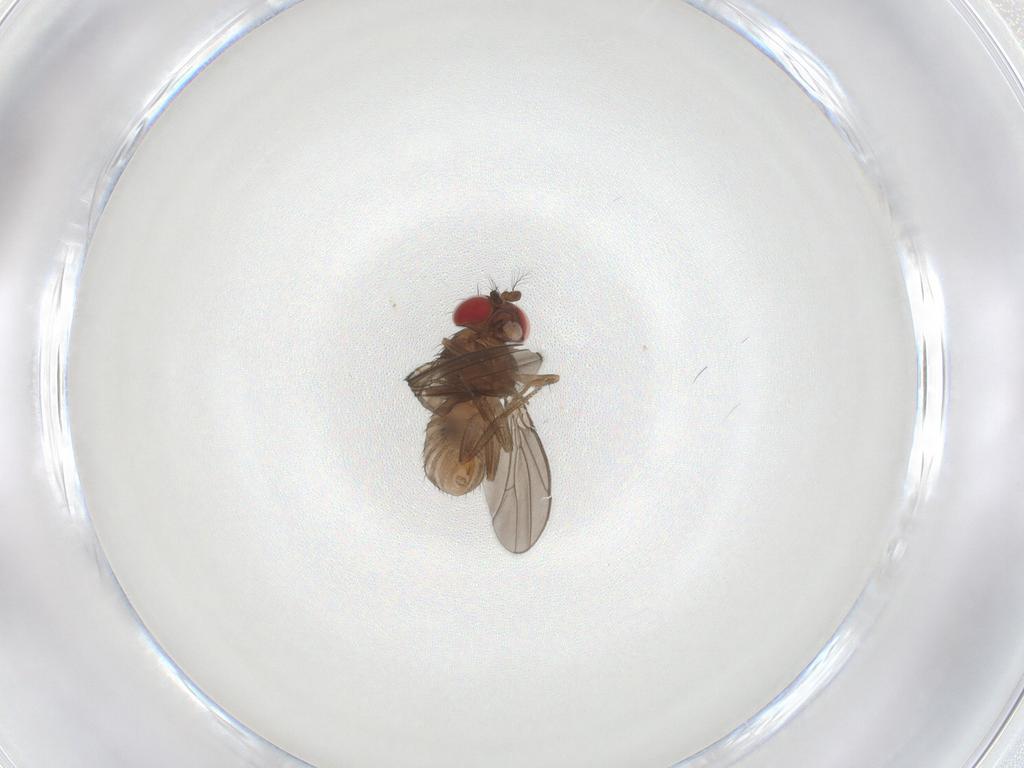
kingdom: Animalia
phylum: Arthropoda
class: Insecta
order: Diptera
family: Drosophilidae
